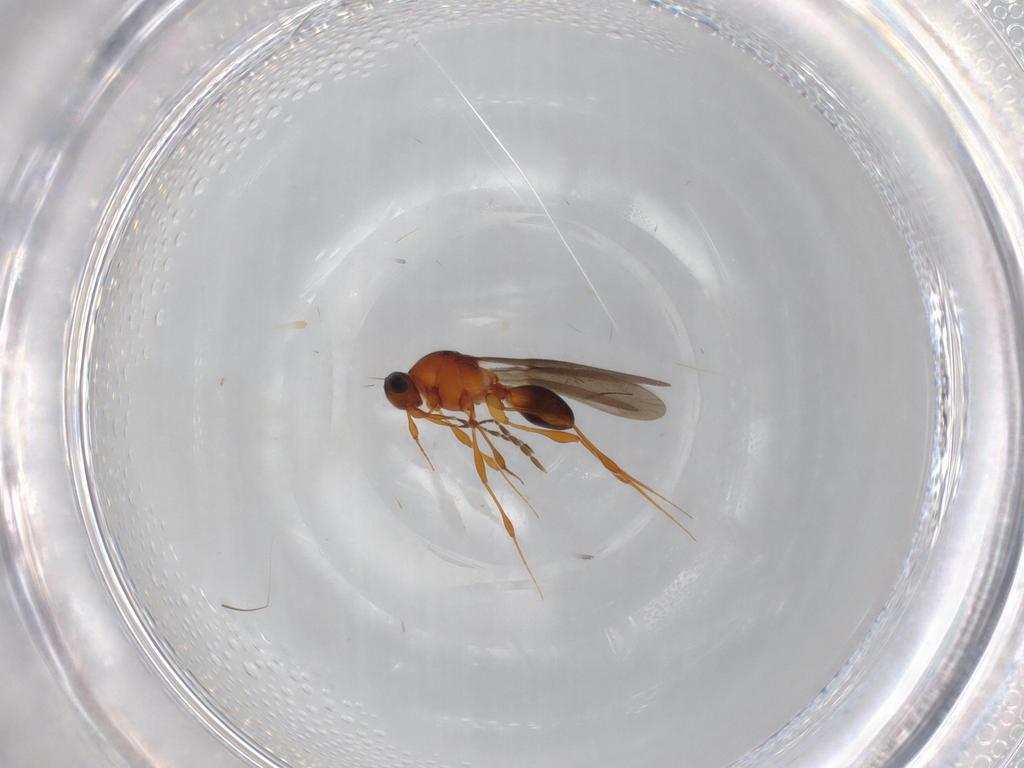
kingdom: Animalia
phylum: Arthropoda
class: Insecta
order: Hymenoptera
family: Platygastridae
